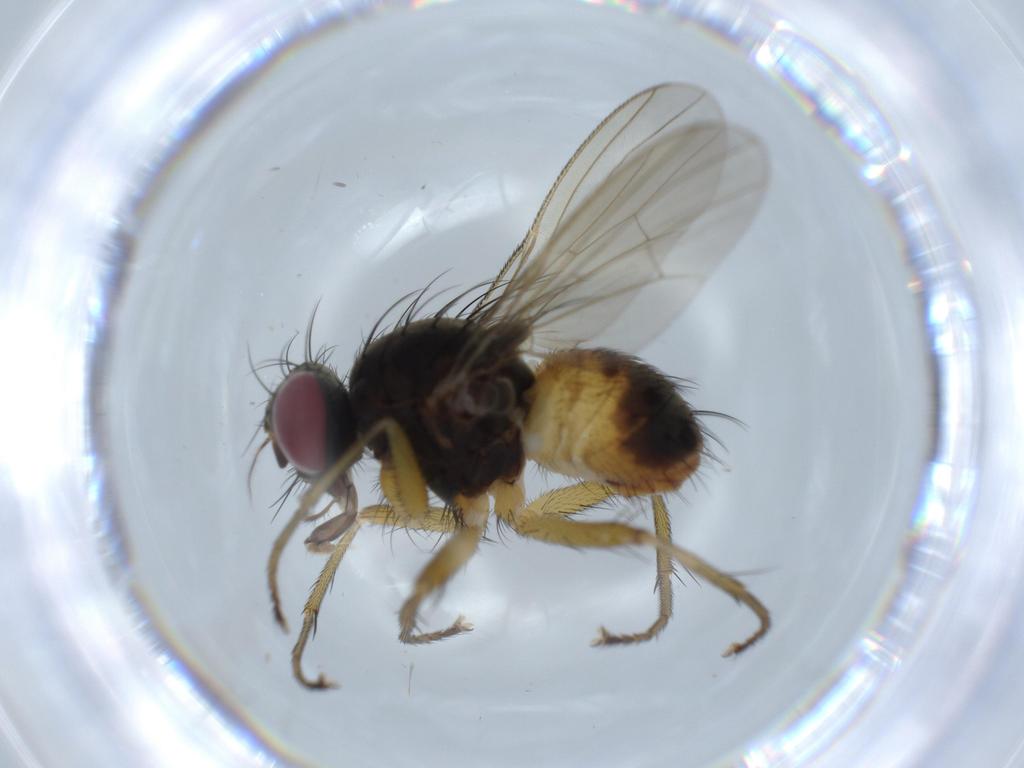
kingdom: Animalia
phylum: Arthropoda
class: Insecta
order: Diptera
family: Muscidae
